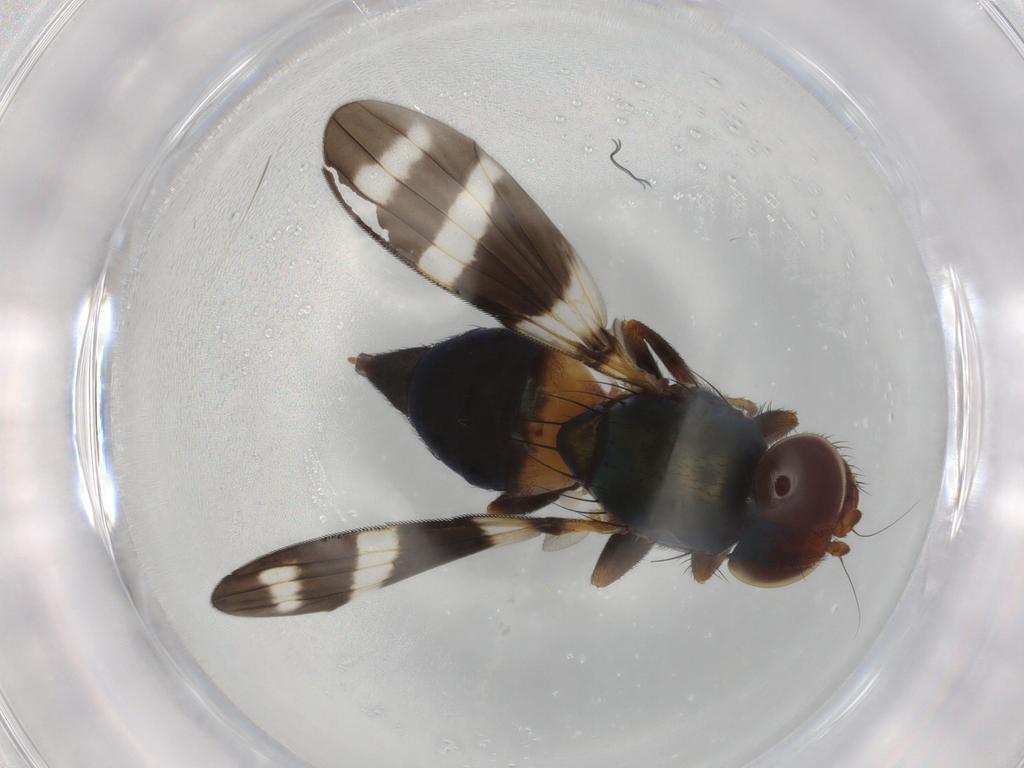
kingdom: Animalia
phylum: Arthropoda
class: Insecta
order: Diptera
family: Ulidiidae
